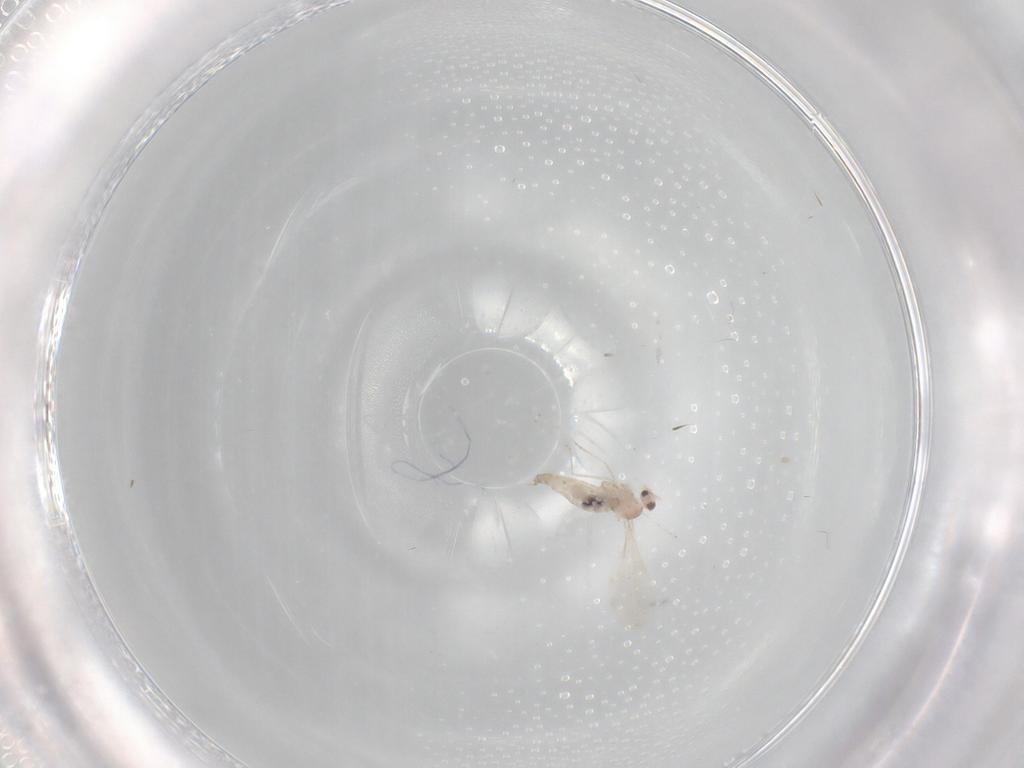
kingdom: Animalia
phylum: Arthropoda
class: Insecta
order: Diptera
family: Cecidomyiidae
